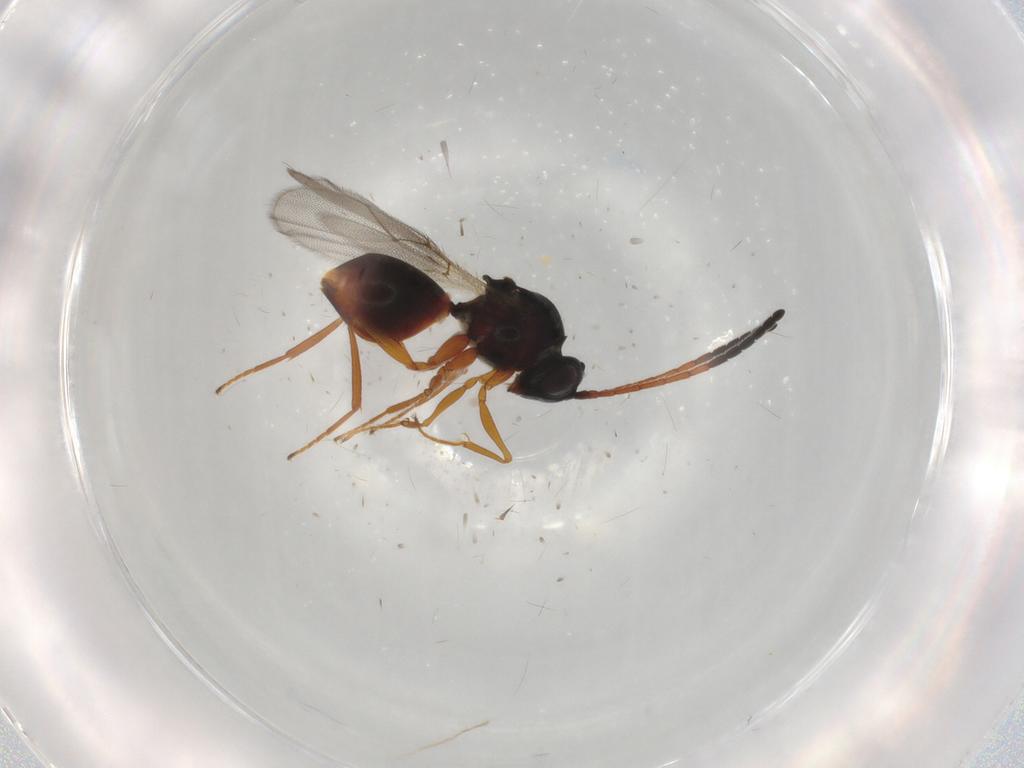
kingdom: Animalia
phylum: Arthropoda
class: Insecta
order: Hymenoptera
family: Figitidae
